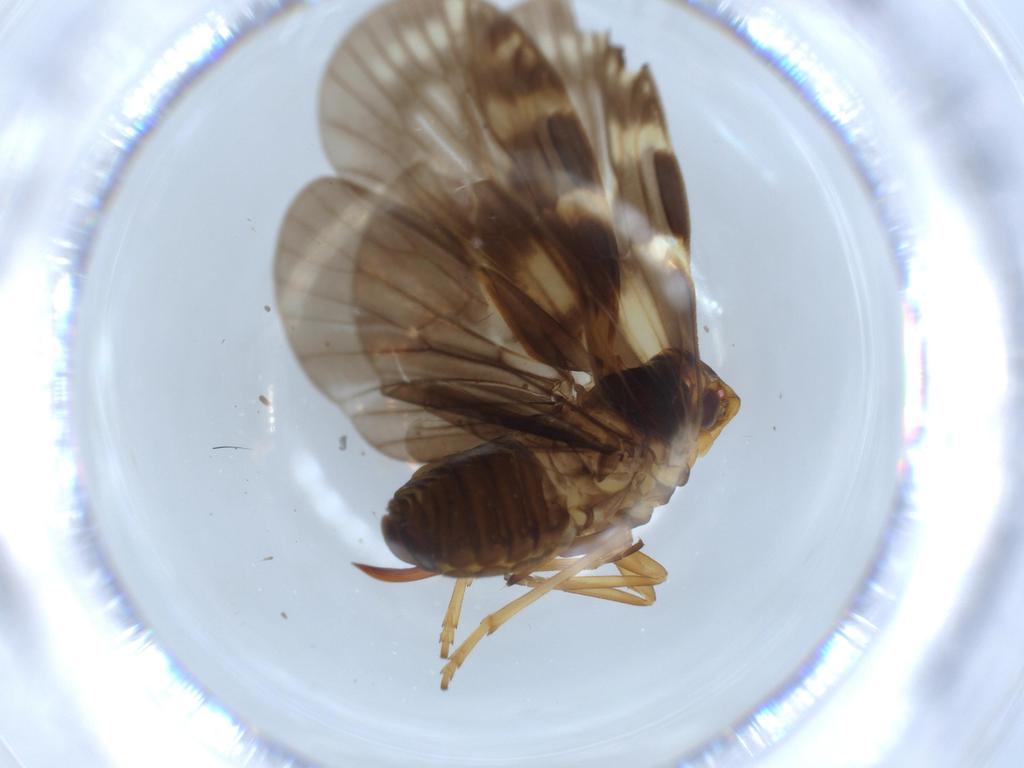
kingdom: Animalia
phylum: Arthropoda
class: Insecta
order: Hemiptera
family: Cixiidae
